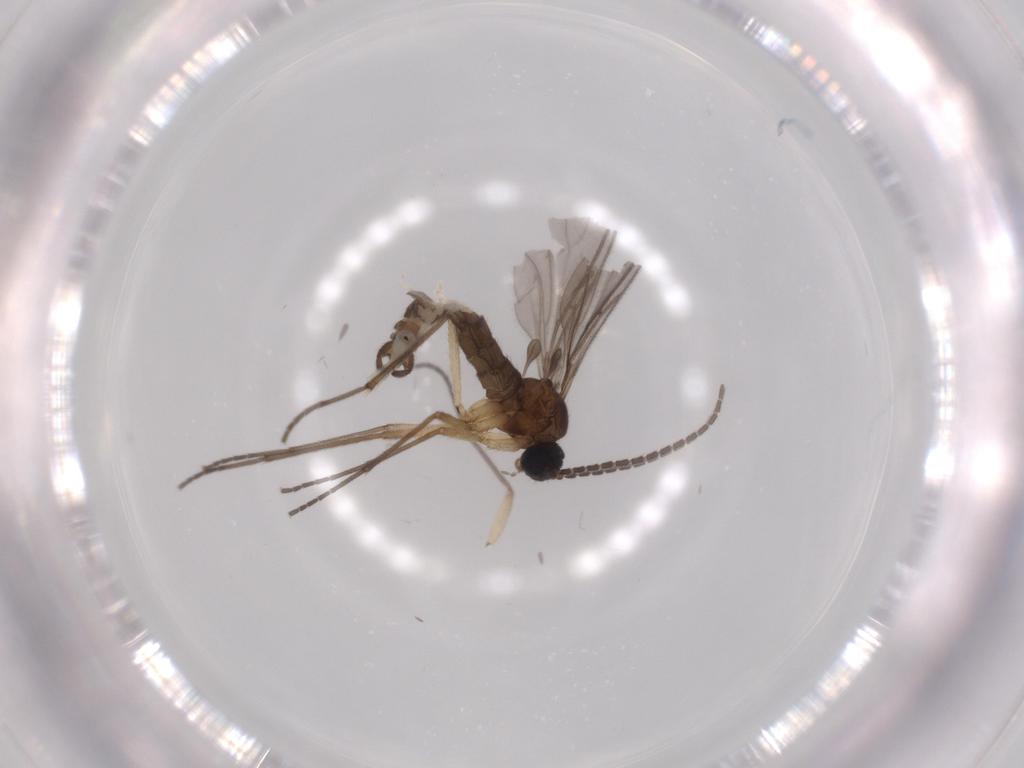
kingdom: Animalia
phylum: Arthropoda
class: Insecta
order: Diptera
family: Sciaridae
